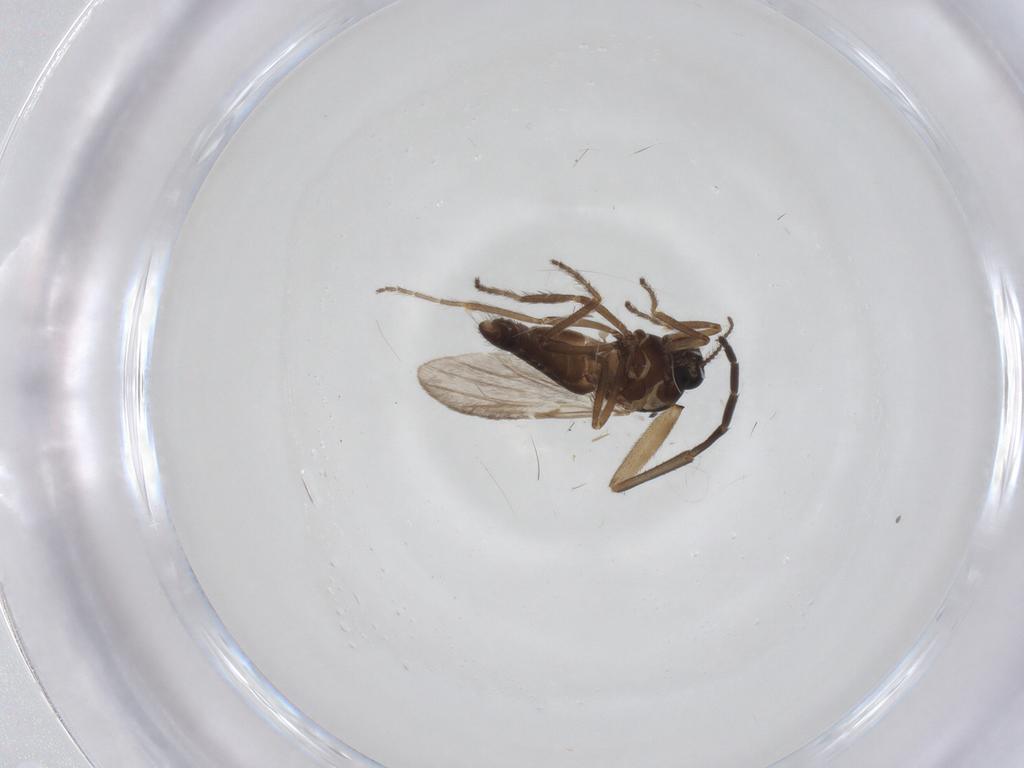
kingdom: Animalia
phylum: Arthropoda
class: Insecta
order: Diptera
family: Ceratopogonidae
